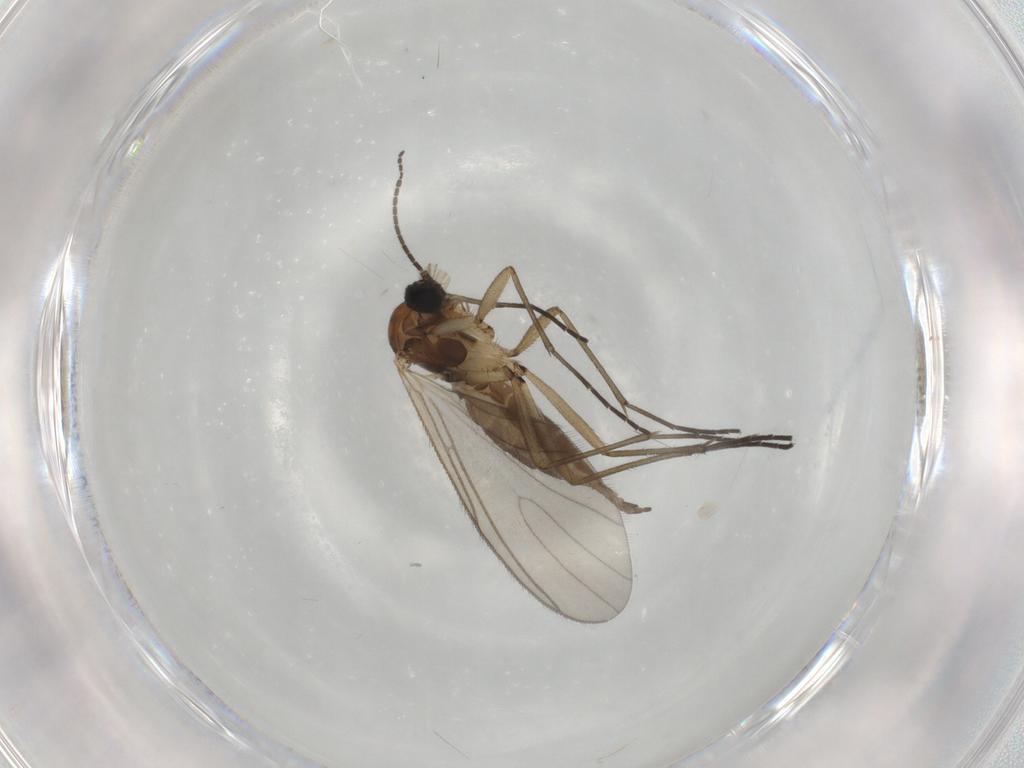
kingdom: Animalia
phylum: Arthropoda
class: Insecta
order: Diptera
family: Sciaridae
